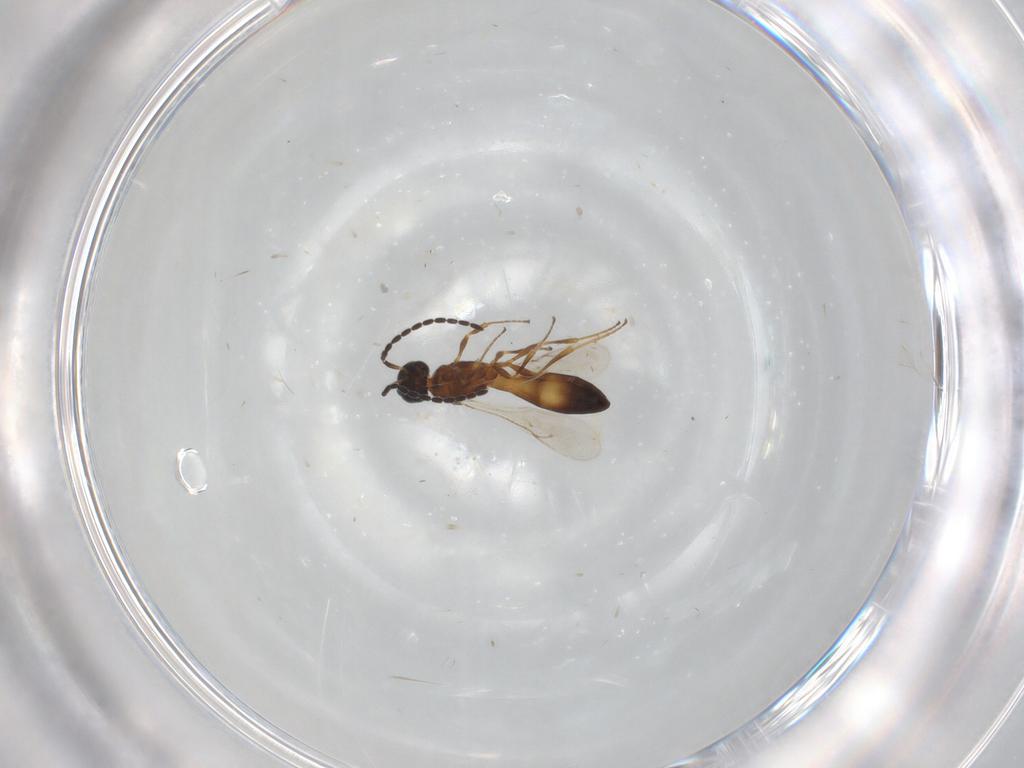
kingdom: Animalia
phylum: Arthropoda
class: Insecta
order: Hymenoptera
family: Scelionidae
